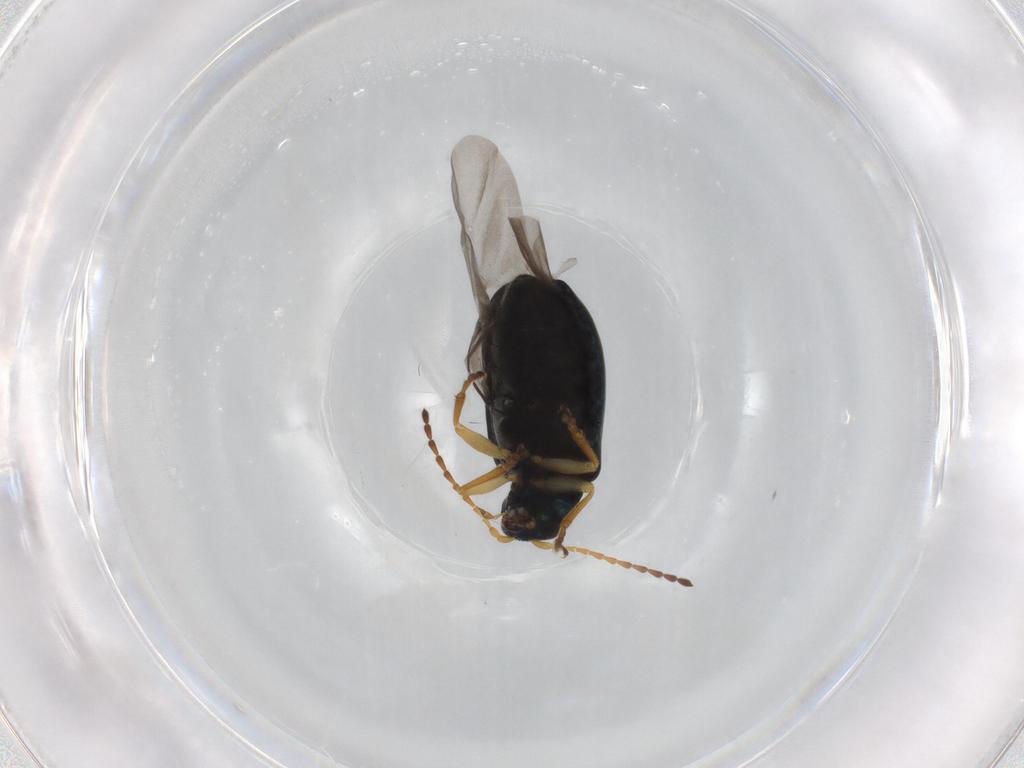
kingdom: Animalia
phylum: Arthropoda
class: Insecta
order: Coleoptera
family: Chrysomelidae
